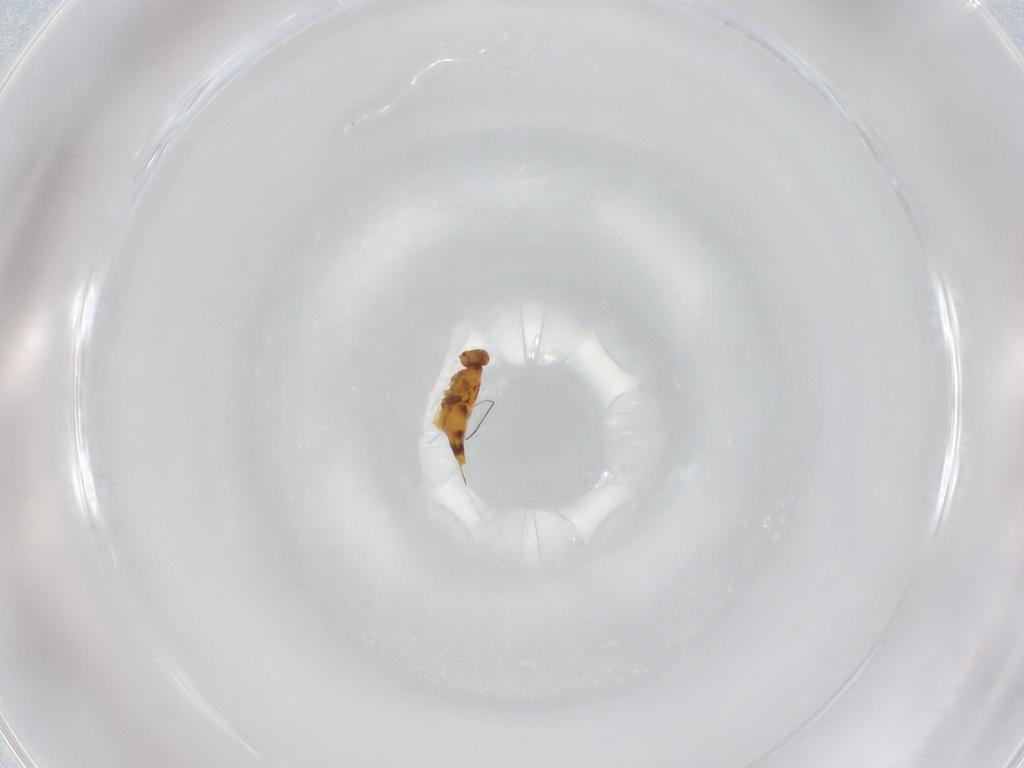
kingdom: Animalia
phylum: Arthropoda
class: Insecta
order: Hymenoptera
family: Aphelinidae
